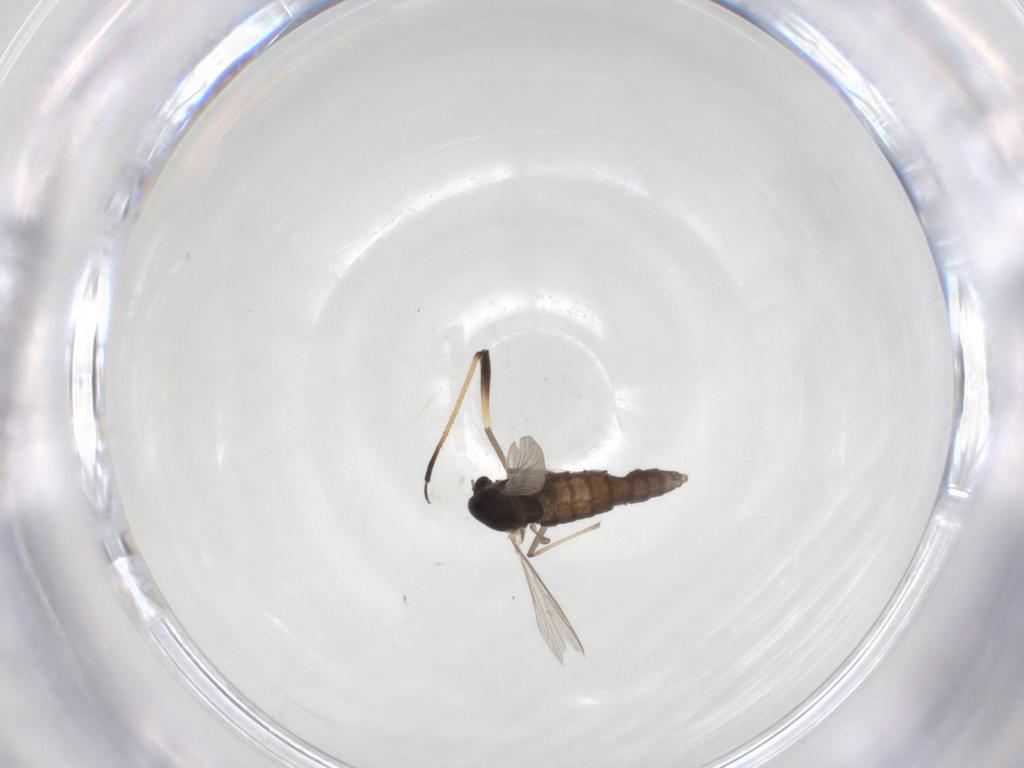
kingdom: Animalia
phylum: Arthropoda
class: Insecta
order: Diptera
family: Chironomidae
